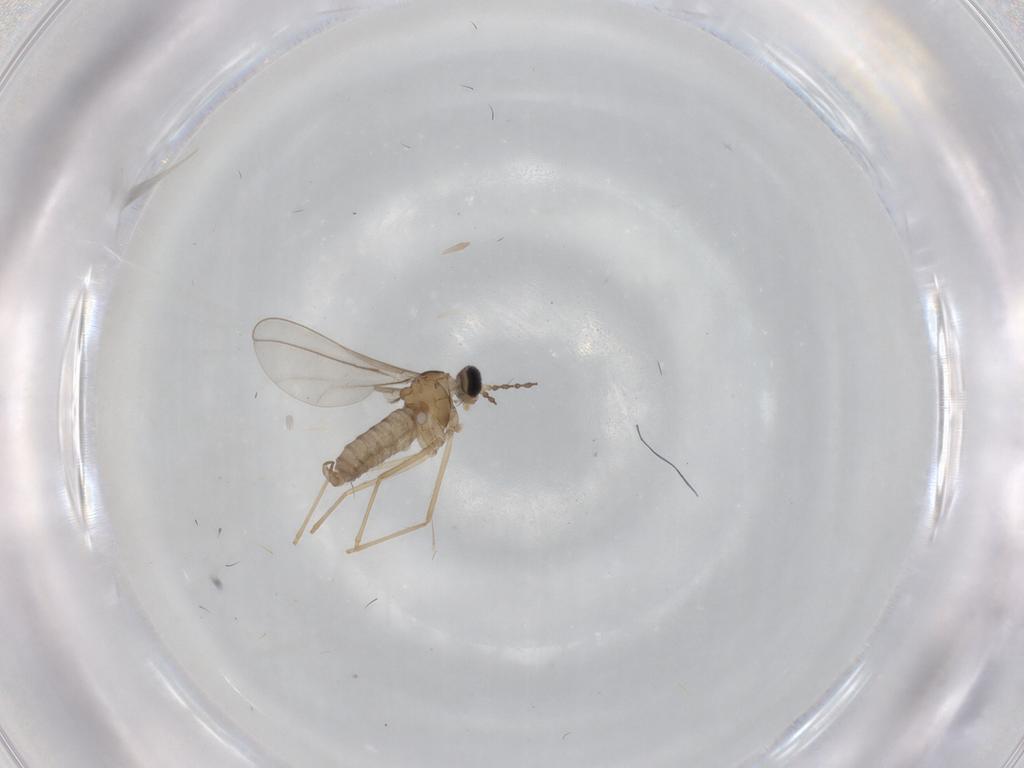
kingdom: Animalia
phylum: Arthropoda
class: Insecta
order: Diptera
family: Cecidomyiidae
